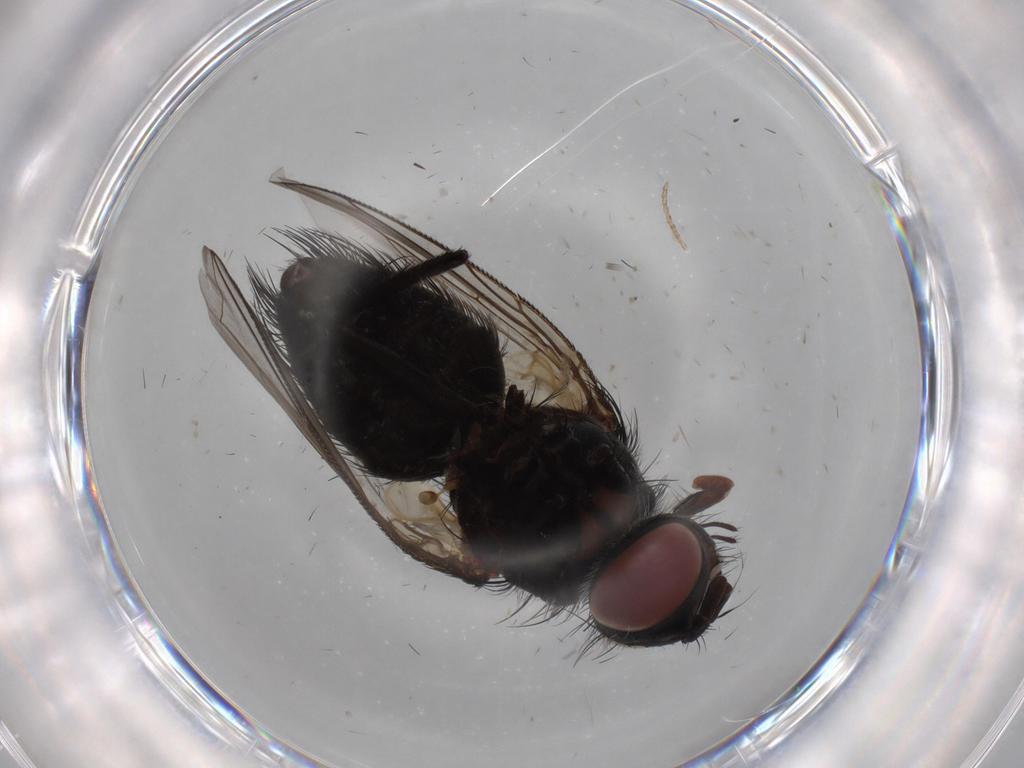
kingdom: Animalia
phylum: Arthropoda
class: Insecta
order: Diptera
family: Tachinidae
